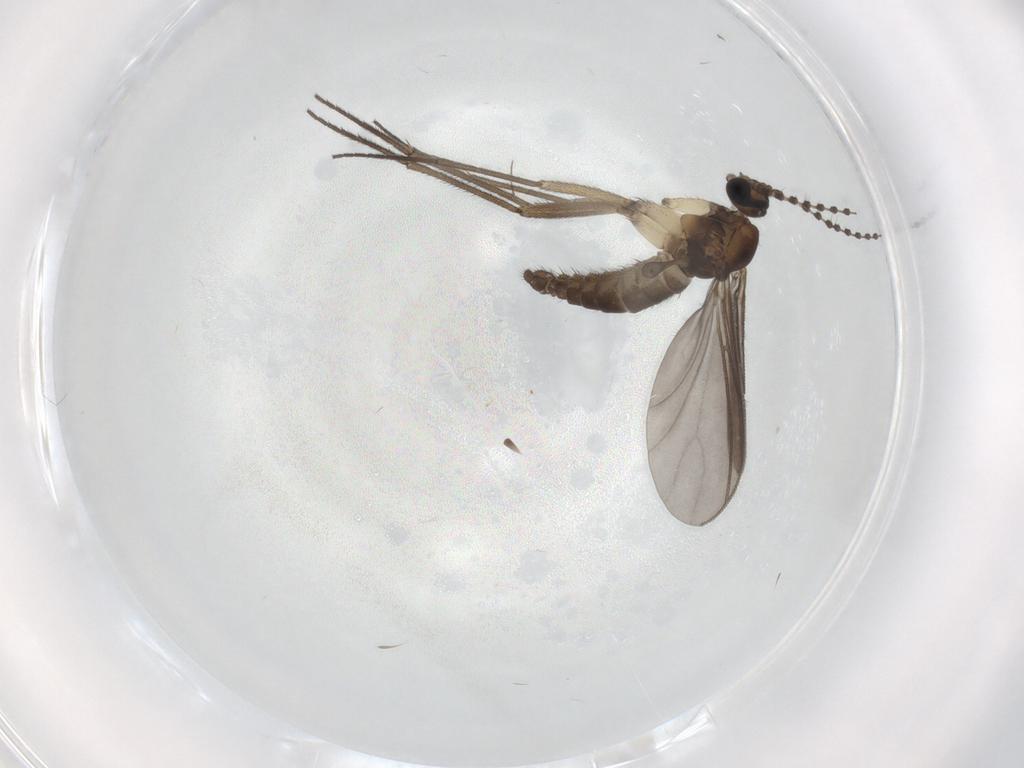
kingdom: Animalia
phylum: Arthropoda
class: Insecta
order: Diptera
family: Sciaridae
